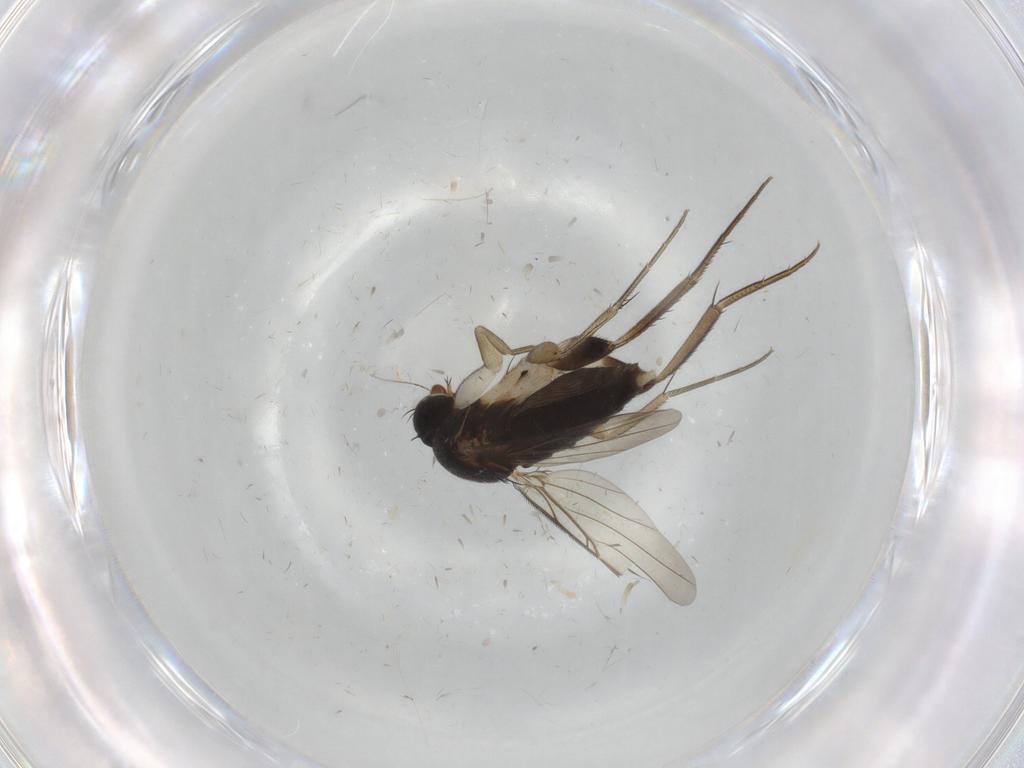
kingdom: Animalia
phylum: Arthropoda
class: Insecta
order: Diptera
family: Phoridae
